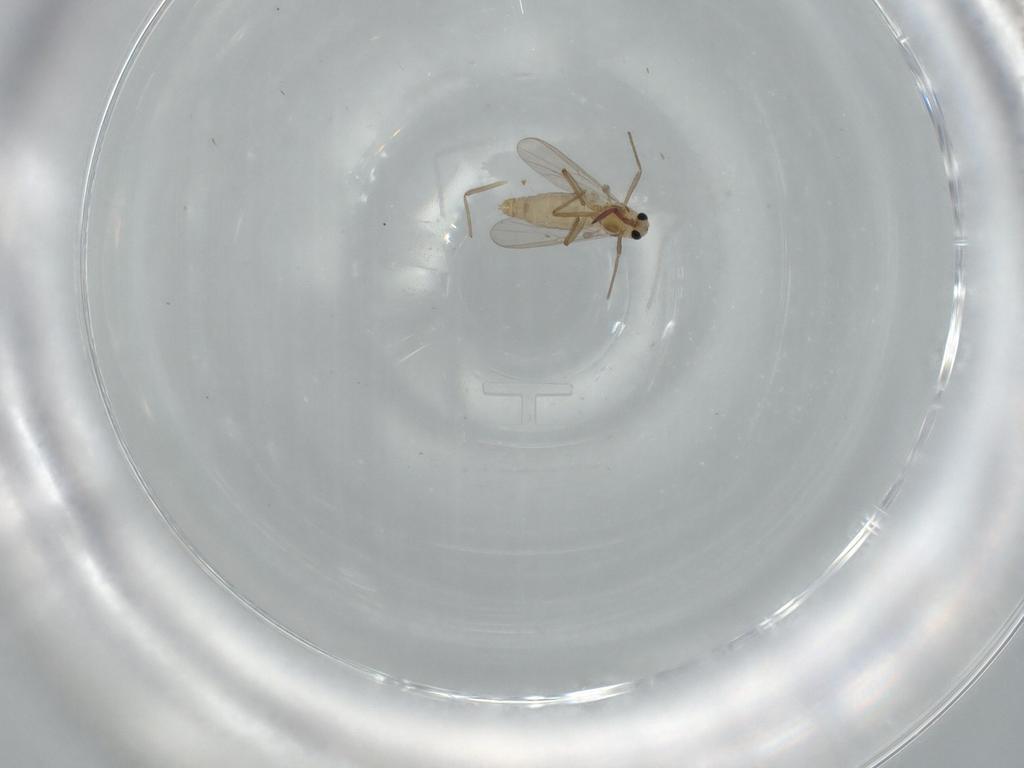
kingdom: Animalia
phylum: Arthropoda
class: Insecta
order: Diptera
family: Chironomidae
